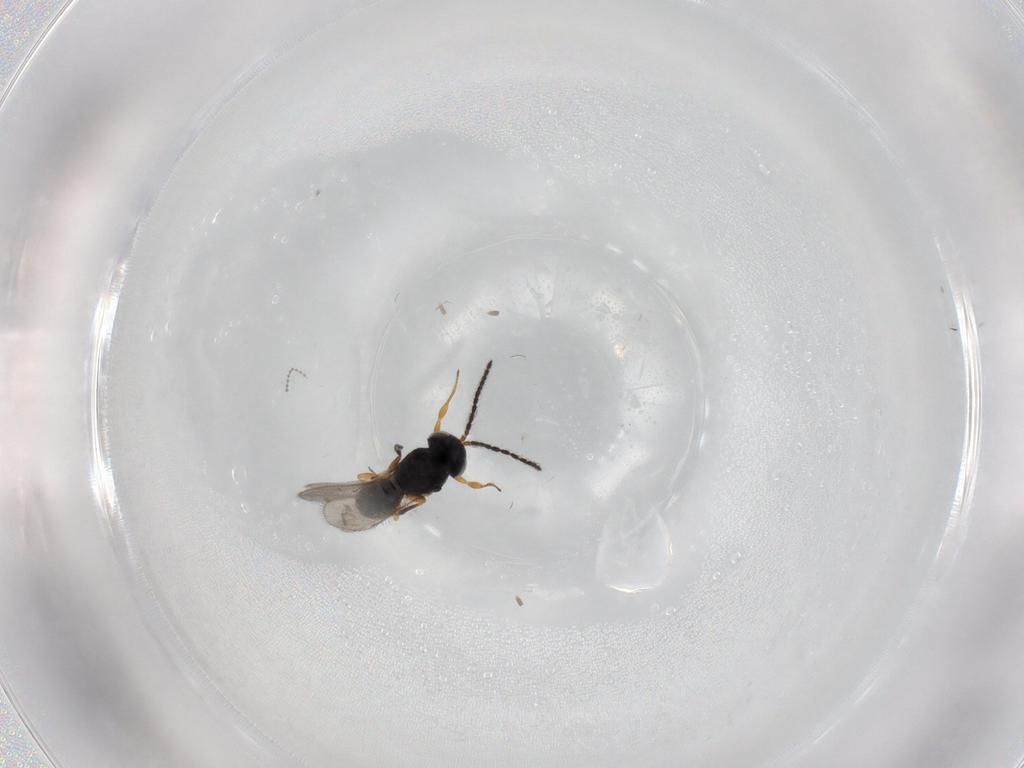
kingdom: Animalia
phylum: Arthropoda
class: Insecta
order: Hymenoptera
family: Scelionidae
